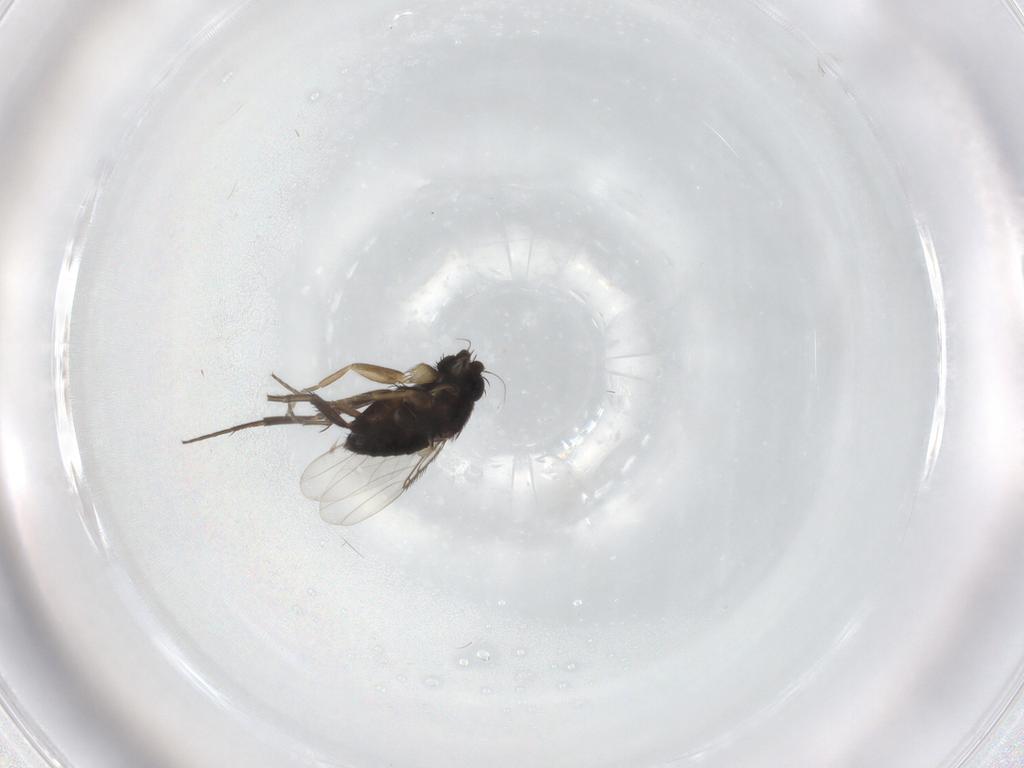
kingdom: Animalia
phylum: Arthropoda
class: Insecta
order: Diptera
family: Phoridae
